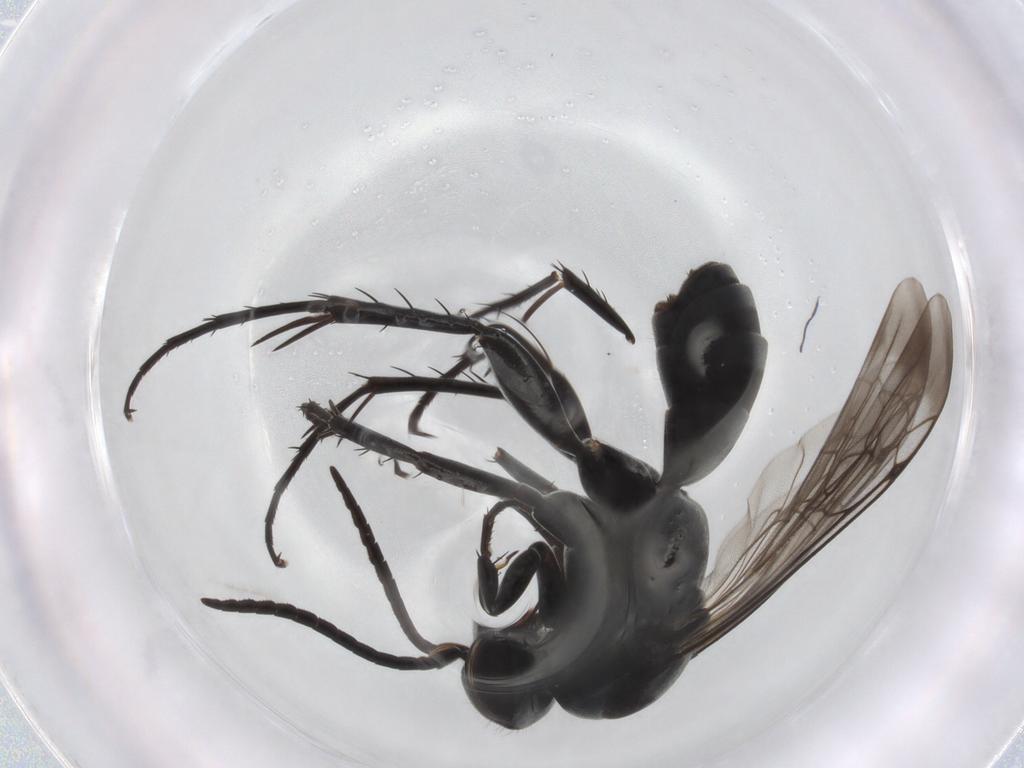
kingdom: Animalia
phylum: Arthropoda
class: Insecta
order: Hymenoptera
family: Pompilidae
